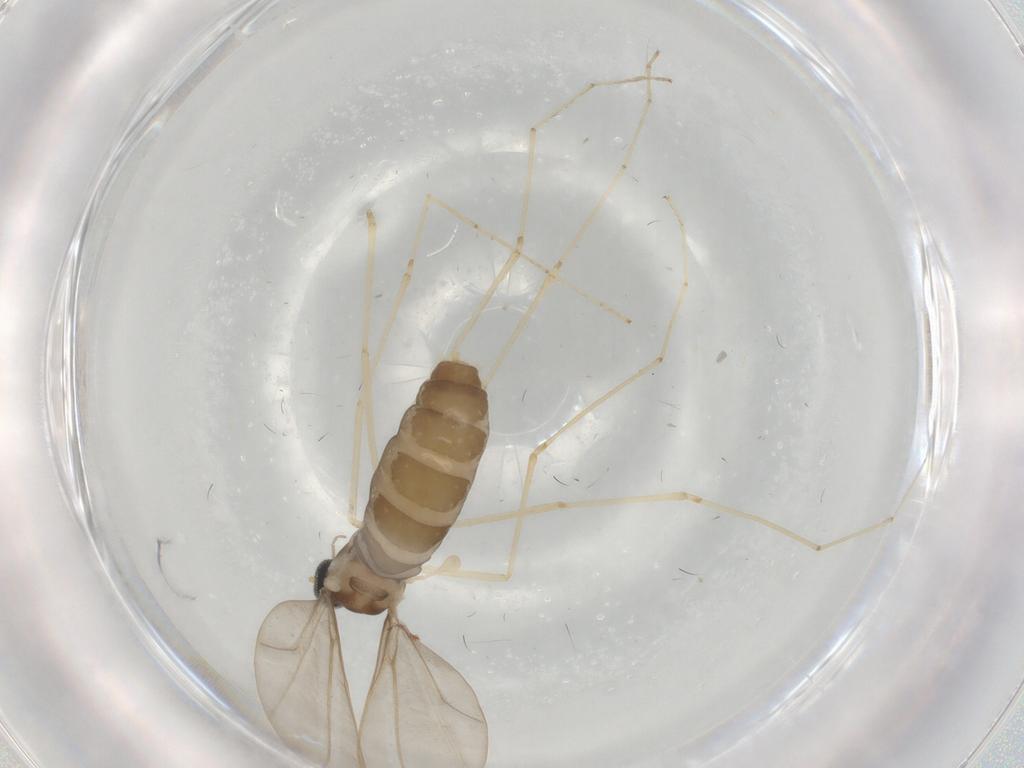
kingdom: Animalia
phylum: Arthropoda
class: Insecta
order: Diptera
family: Cecidomyiidae
